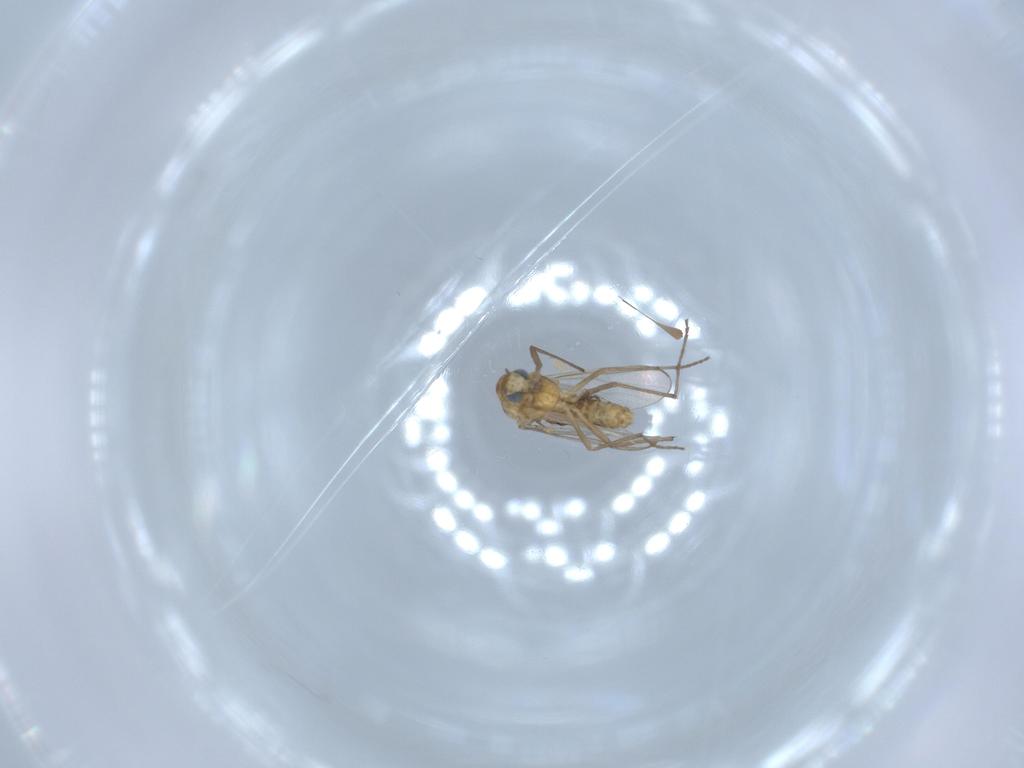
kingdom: Animalia
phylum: Arthropoda
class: Insecta
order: Diptera
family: Chironomidae
